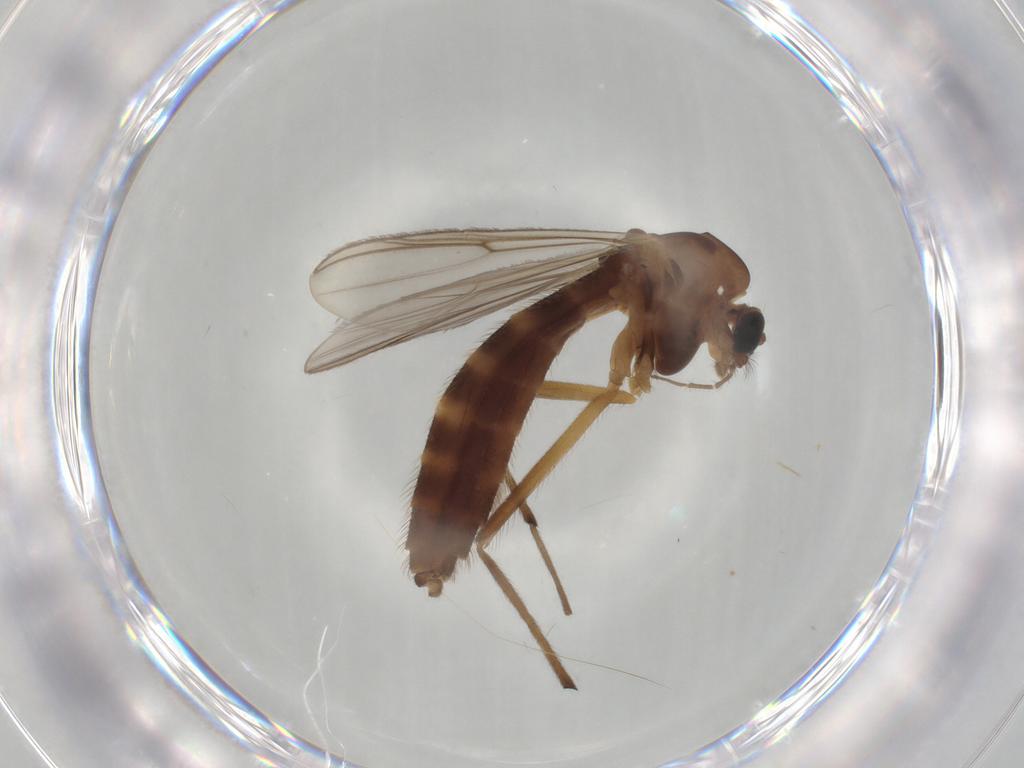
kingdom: Animalia
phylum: Arthropoda
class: Insecta
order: Diptera
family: Chironomidae
